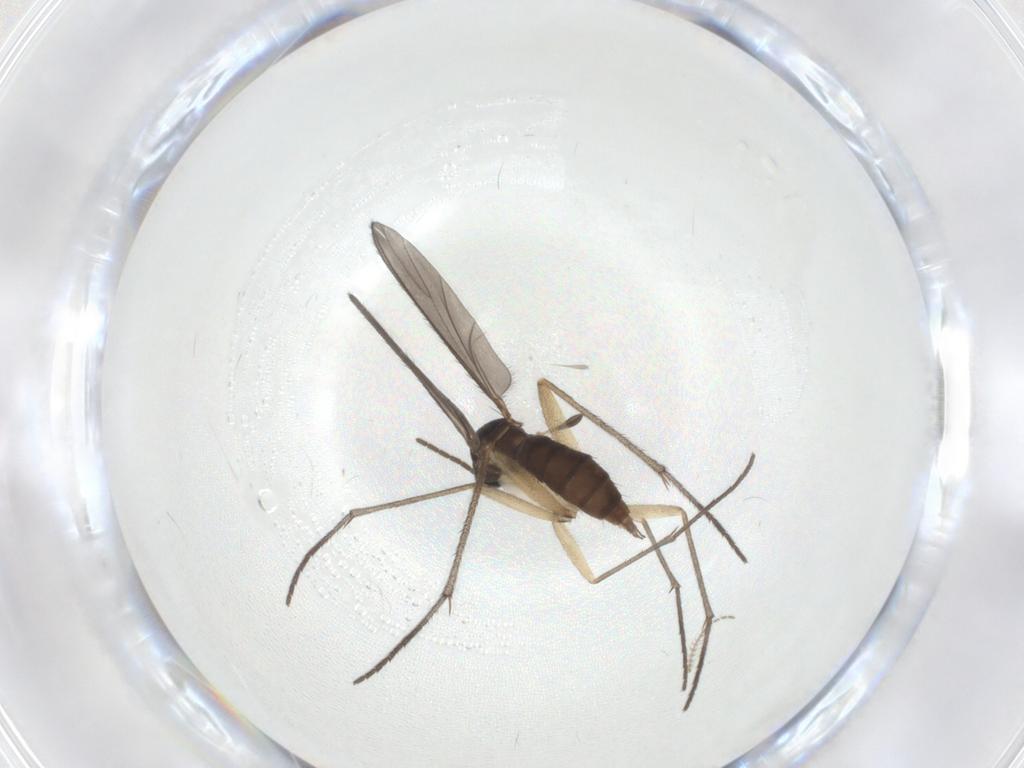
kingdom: Animalia
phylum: Arthropoda
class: Insecta
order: Diptera
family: Sciaridae
